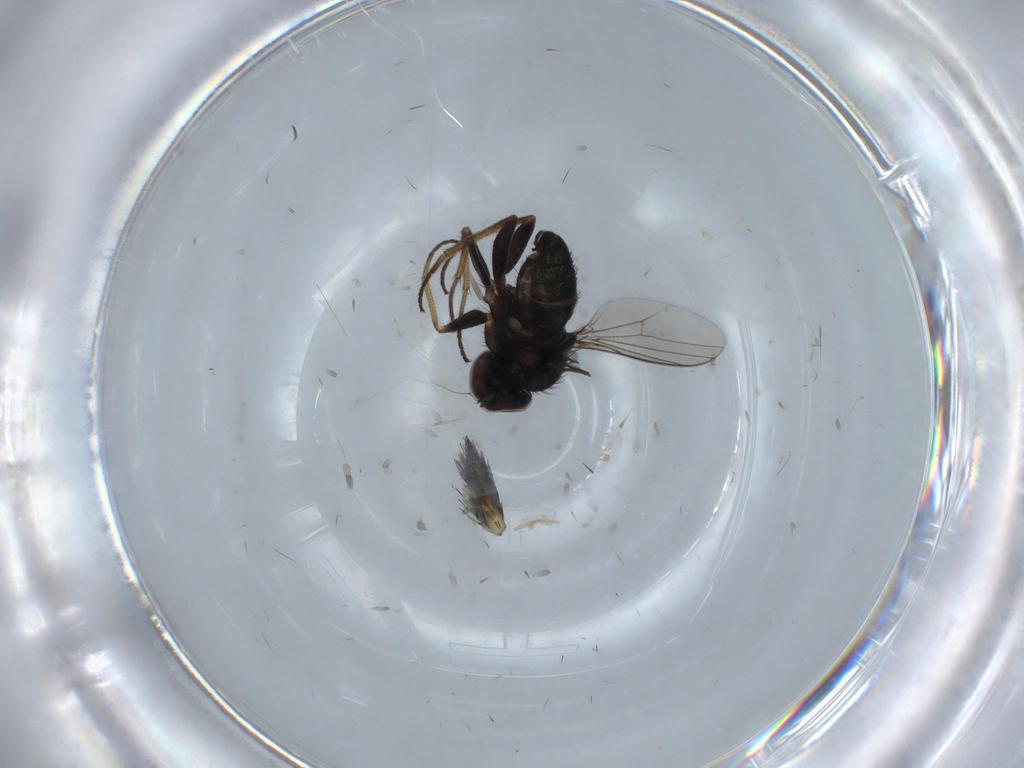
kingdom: Animalia
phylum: Arthropoda
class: Insecta
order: Diptera
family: Dolichopodidae
